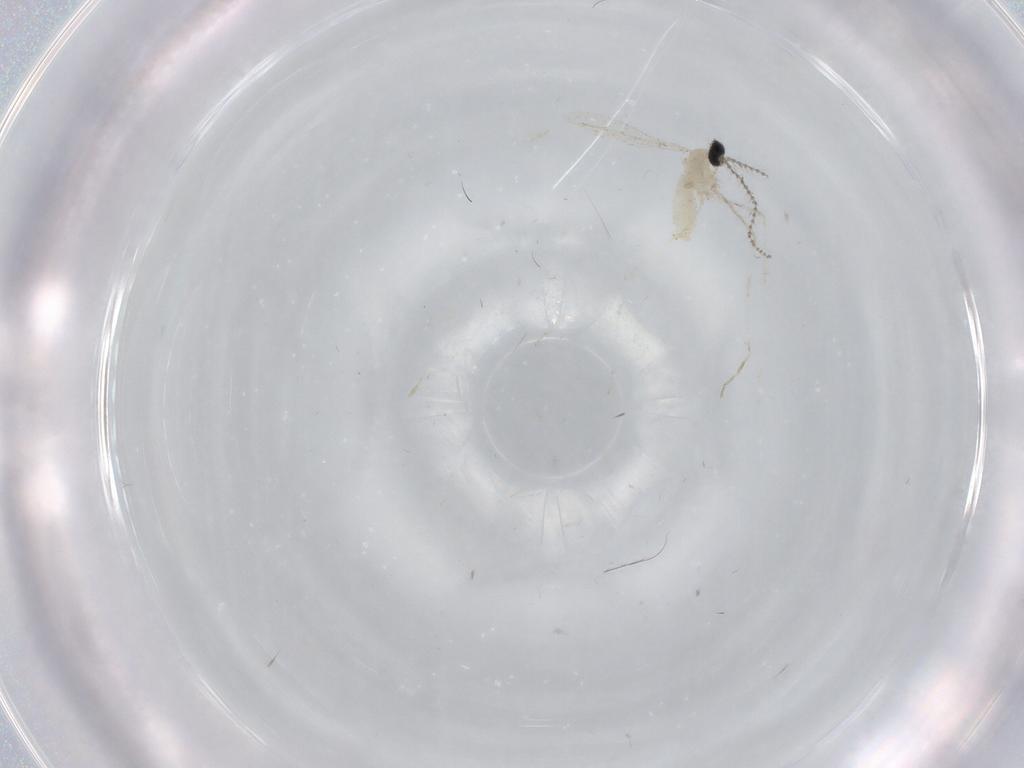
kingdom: Animalia
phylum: Arthropoda
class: Insecta
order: Diptera
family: Cecidomyiidae
